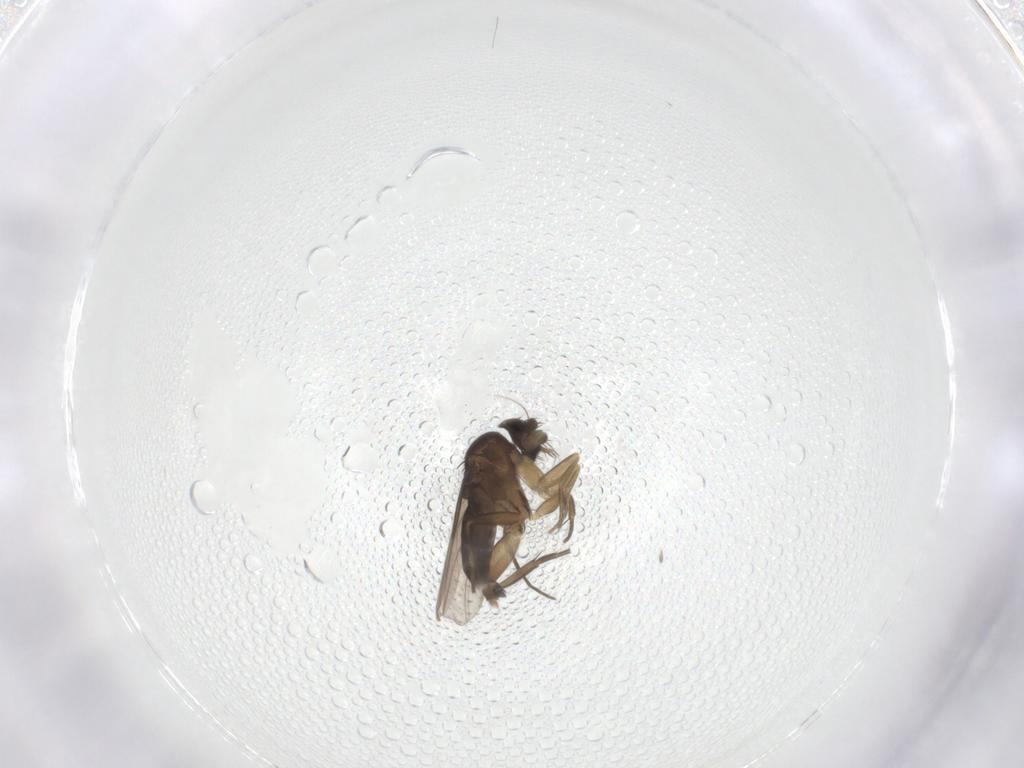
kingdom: Animalia
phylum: Arthropoda
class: Insecta
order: Diptera
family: Phoridae
